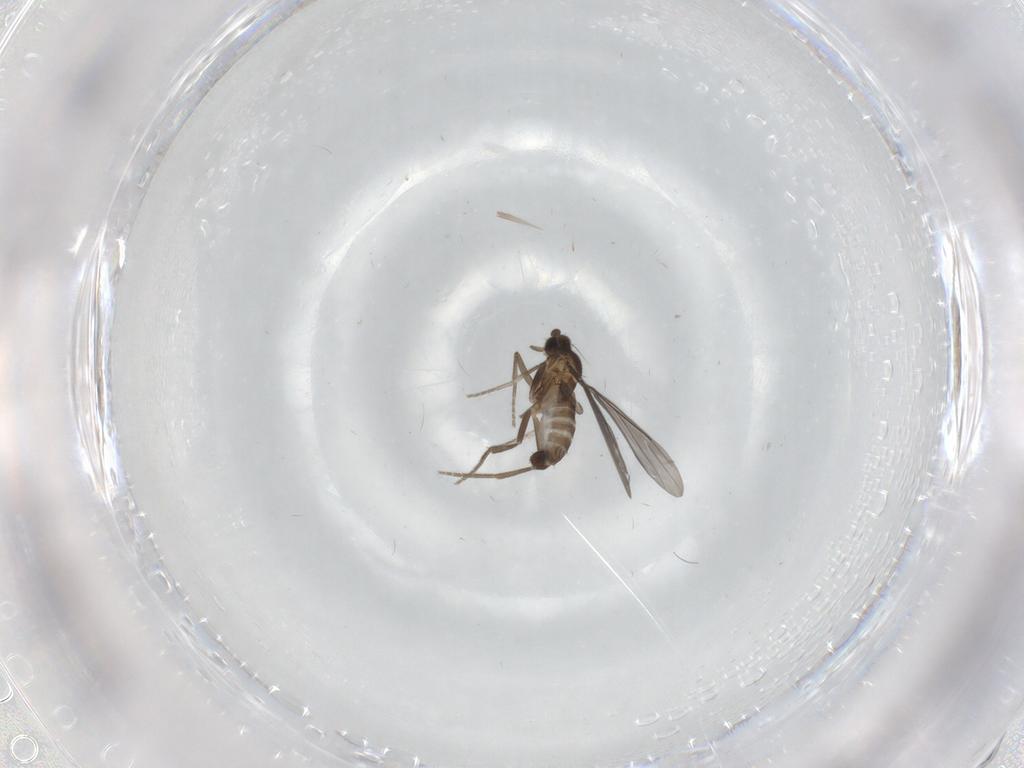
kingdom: Animalia
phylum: Arthropoda
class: Insecta
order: Diptera
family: Phoridae
